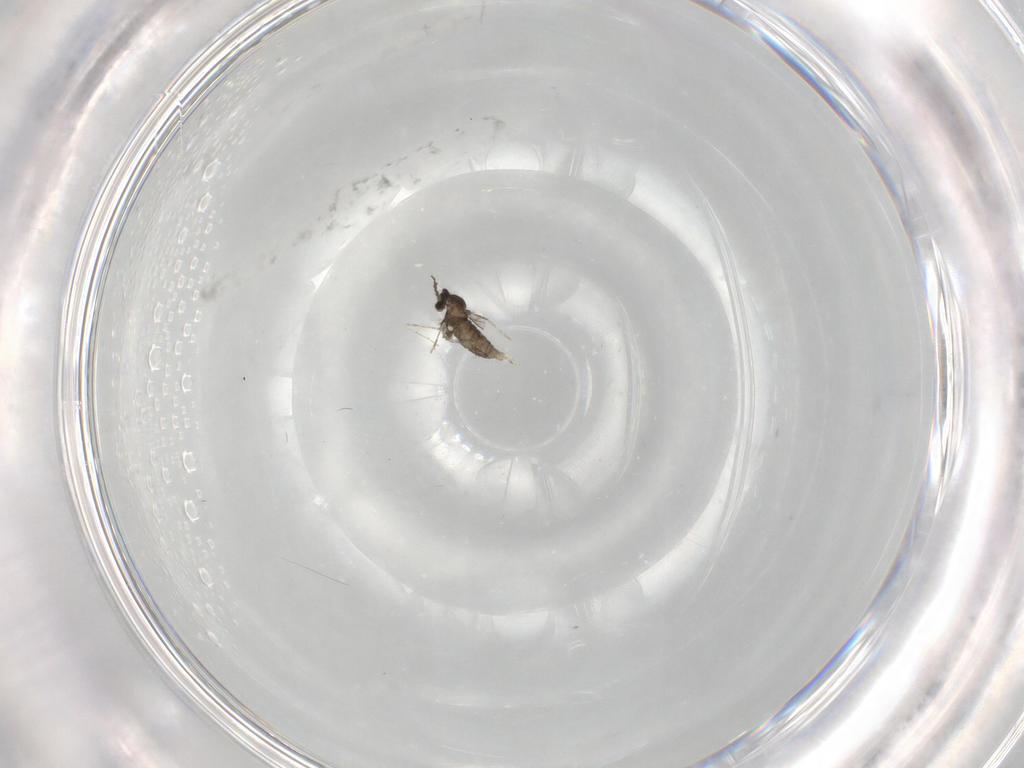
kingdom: Animalia
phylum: Arthropoda
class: Insecta
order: Diptera
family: Cecidomyiidae
